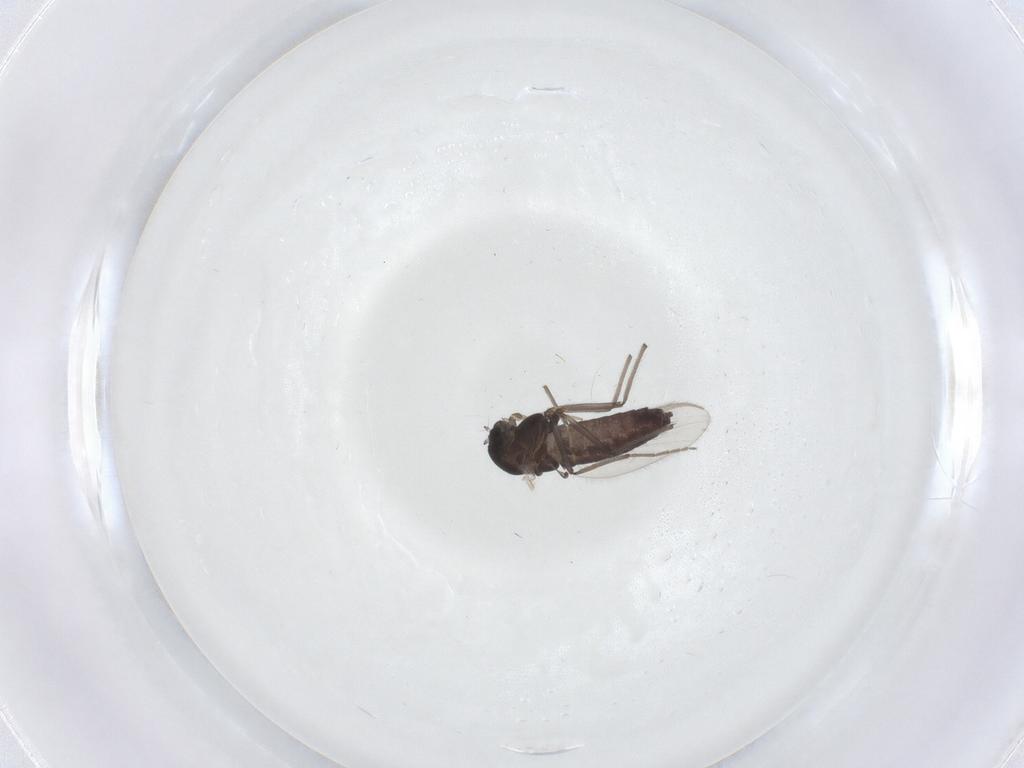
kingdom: Animalia
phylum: Arthropoda
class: Insecta
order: Diptera
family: Chironomidae
